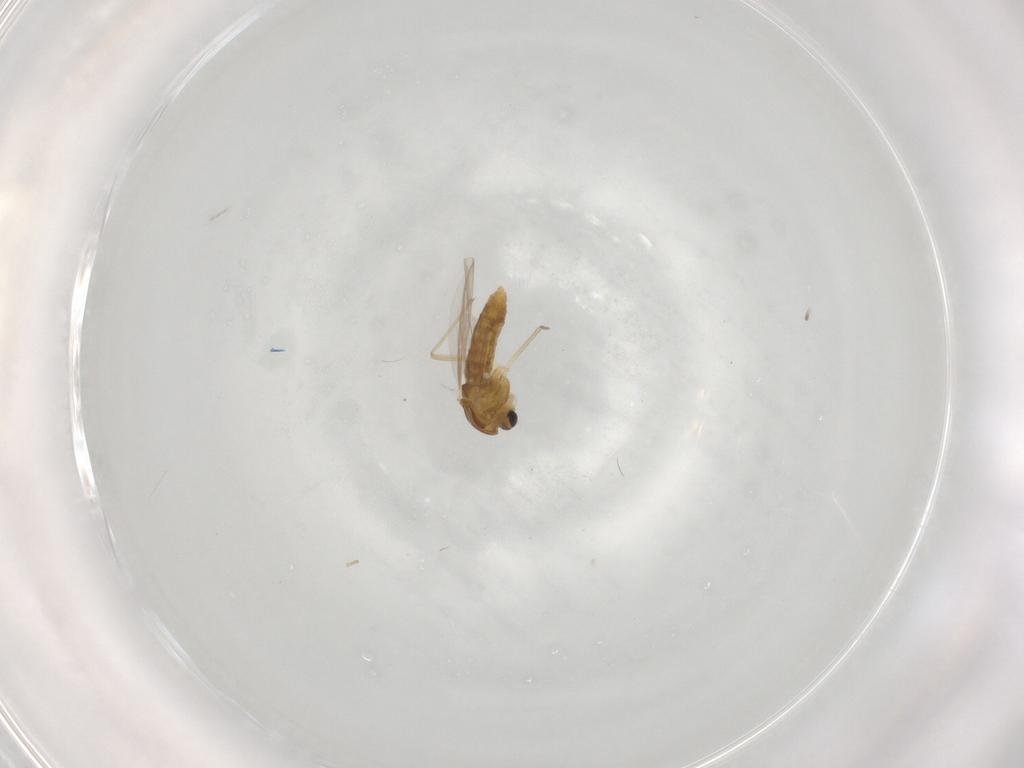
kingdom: Animalia
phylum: Arthropoda
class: Insecta
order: Diptera
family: Chironomidae
